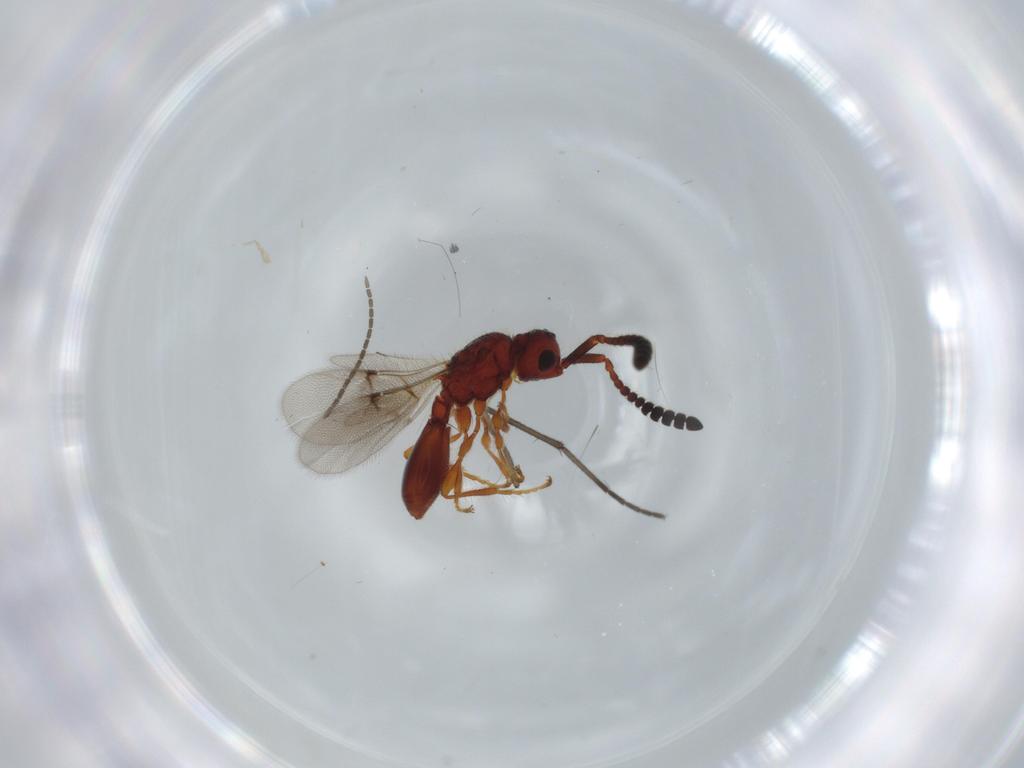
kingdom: Animalia
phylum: Arthropoda
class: Insecta
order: Hymenoptera
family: Diapriidae
